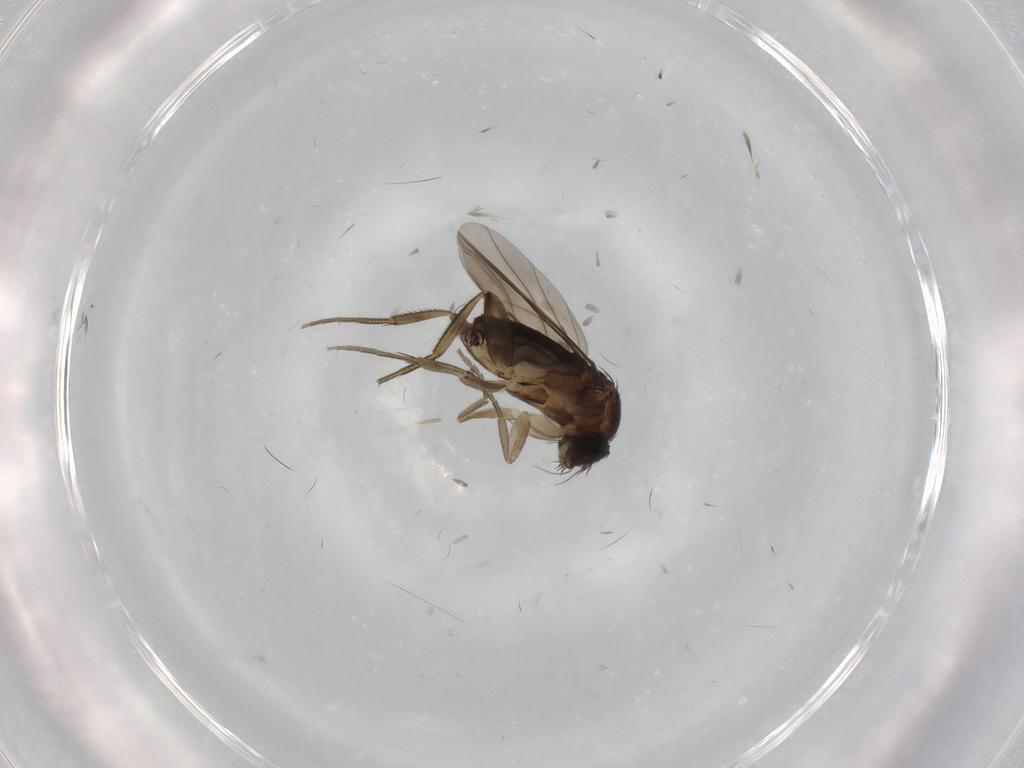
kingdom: Animalia
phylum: Arthropoda
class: Insecta
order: Diptera
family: Phoridae
